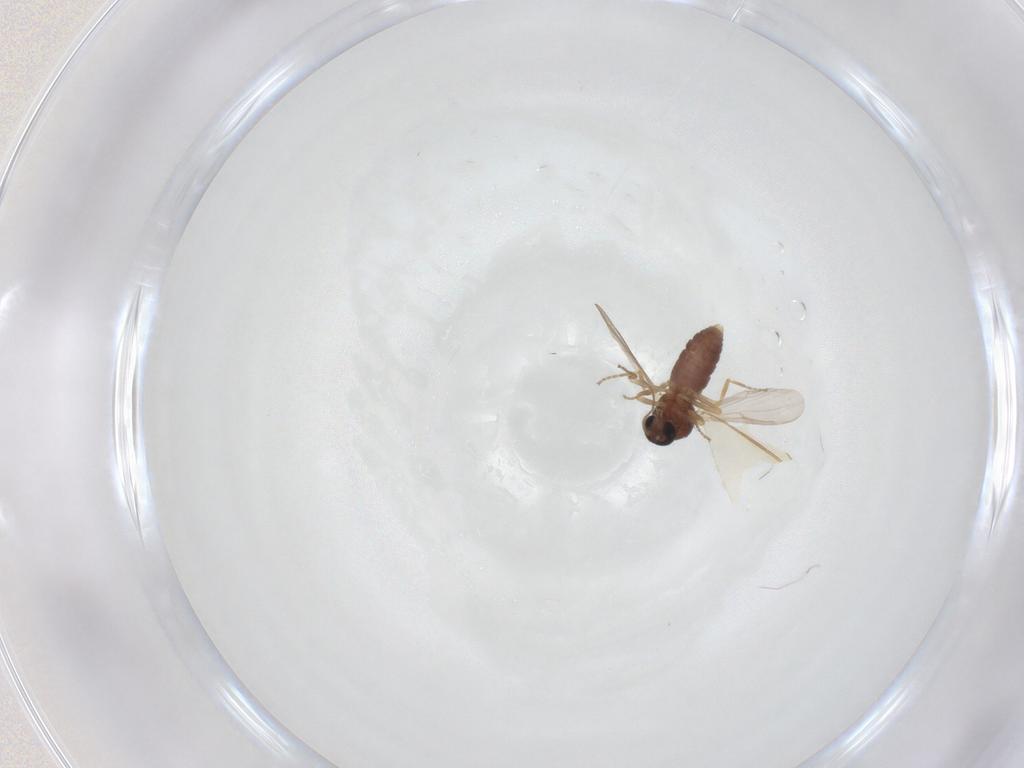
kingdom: Animalia
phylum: Arthropoda
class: Insecta
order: Diptera
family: Ceratopogonidae
